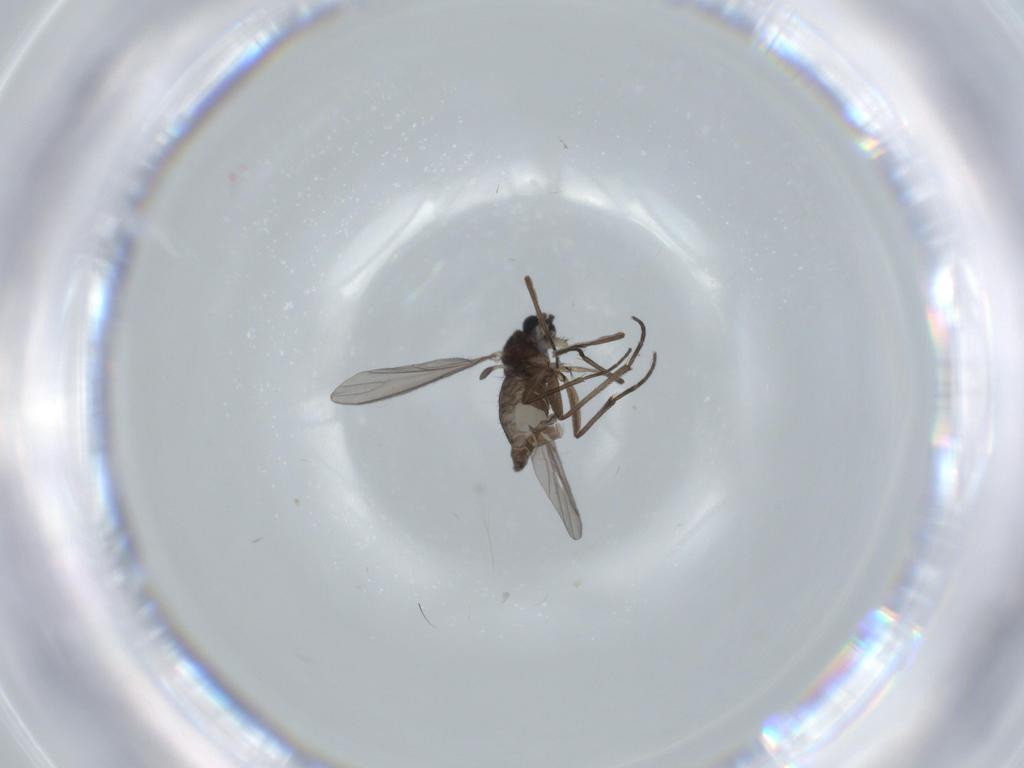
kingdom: Animalia
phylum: Arthropoda
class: Insecta
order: Diptera
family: Sciaridae
